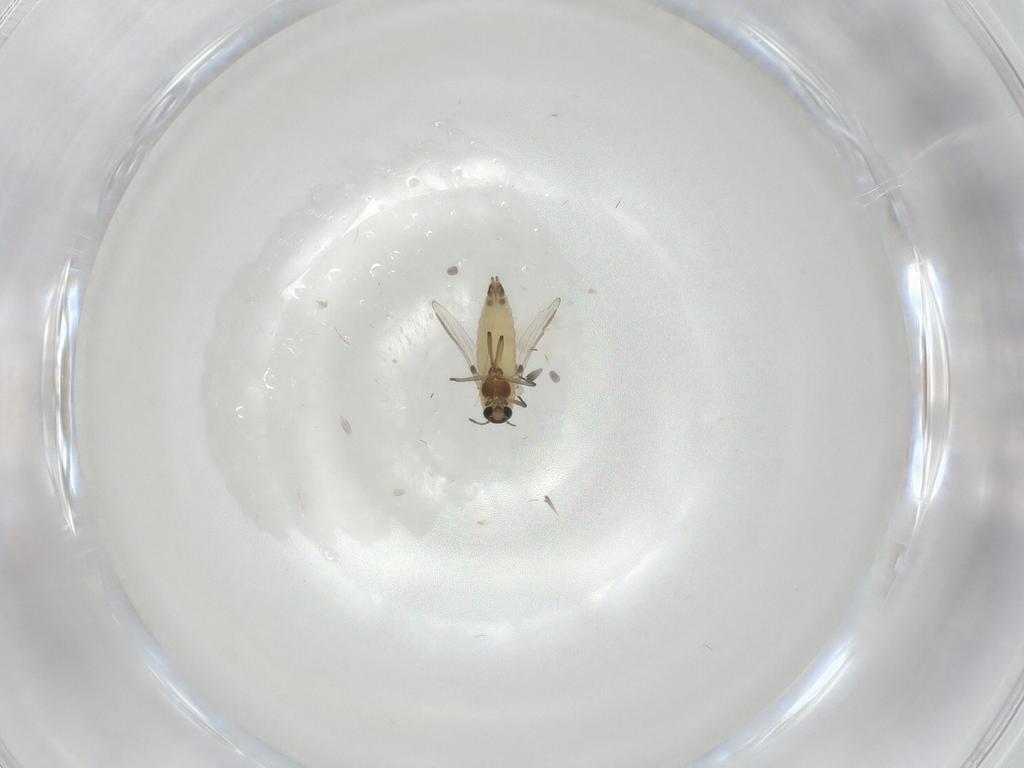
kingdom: Animalia
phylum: Arthropoda
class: Insecta
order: Diptera
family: Chironomidae
